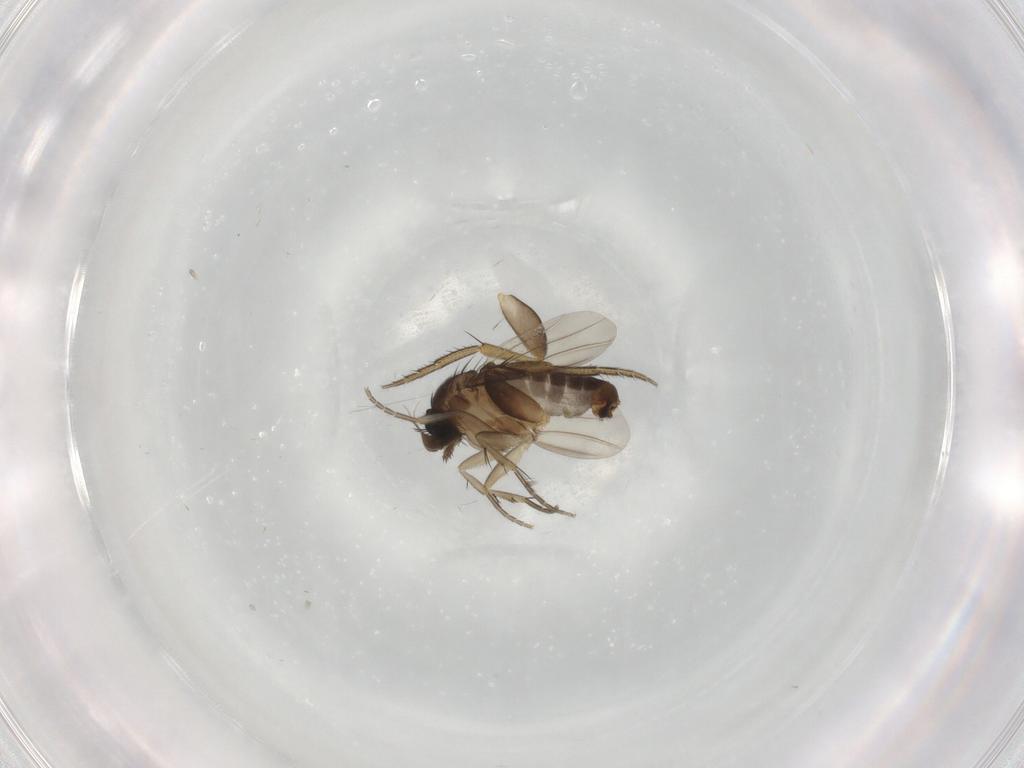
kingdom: Animalia
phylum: Arthropoda
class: Insecta
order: Diptera
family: Phoridae
